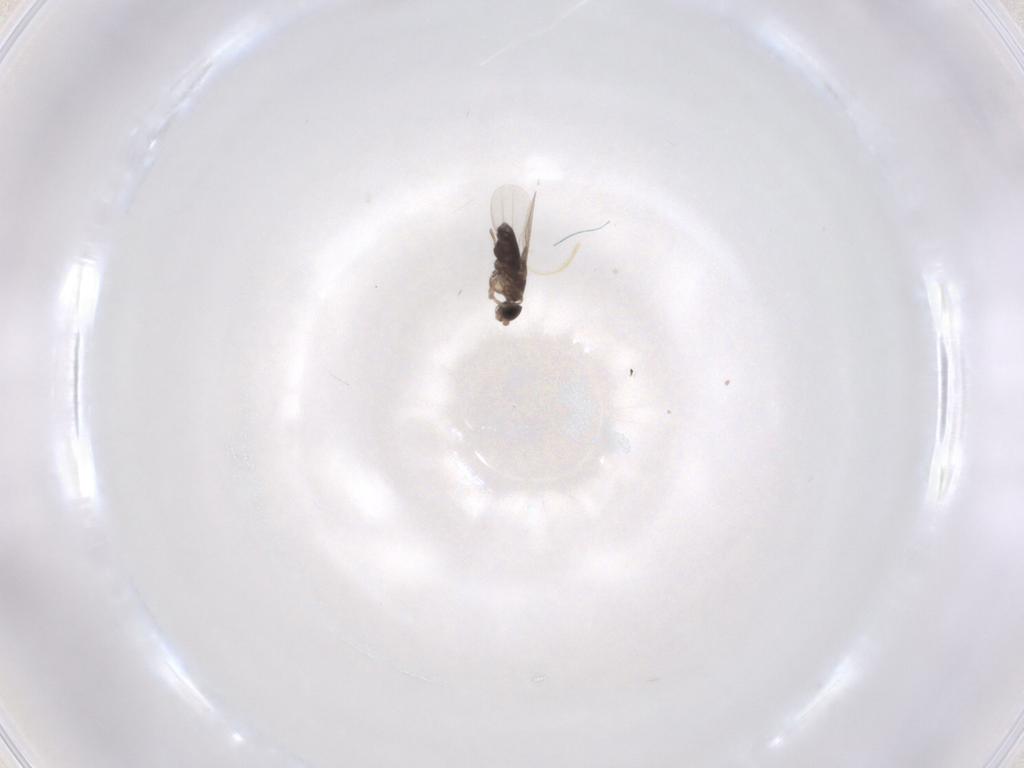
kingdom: Animalia
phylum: Arthropoda
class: Insecta
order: Diptera
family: Phoridae
